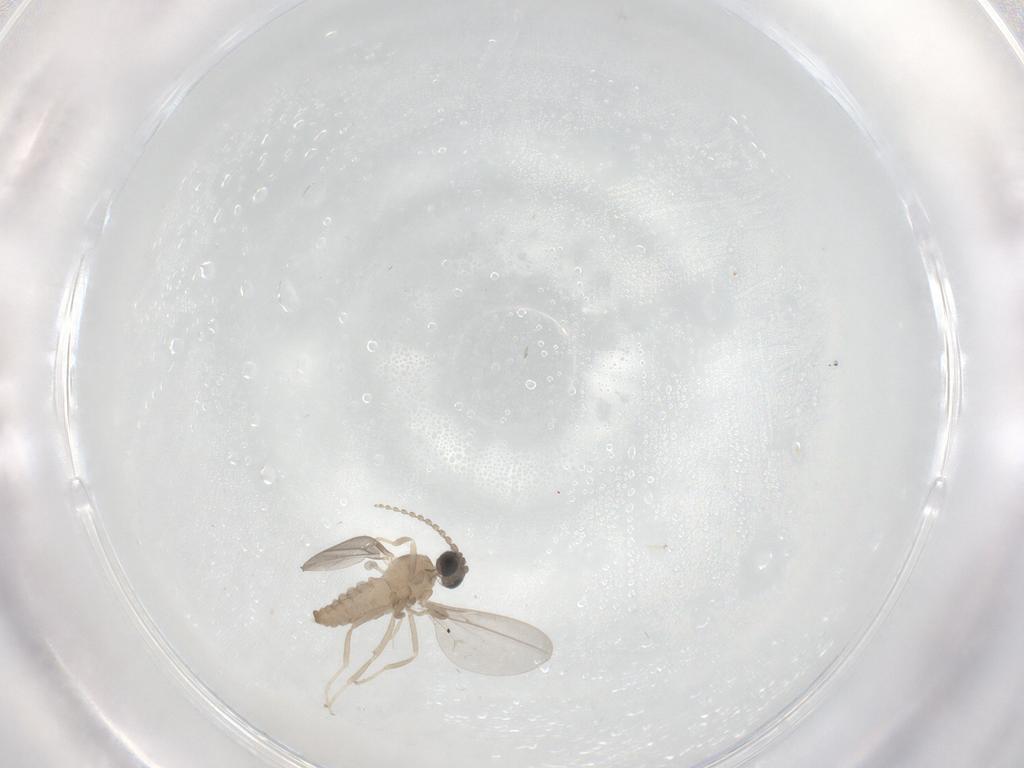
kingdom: Animalia
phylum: Arthropoda
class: Insecta
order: Diptera
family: Cecidomyiidae
